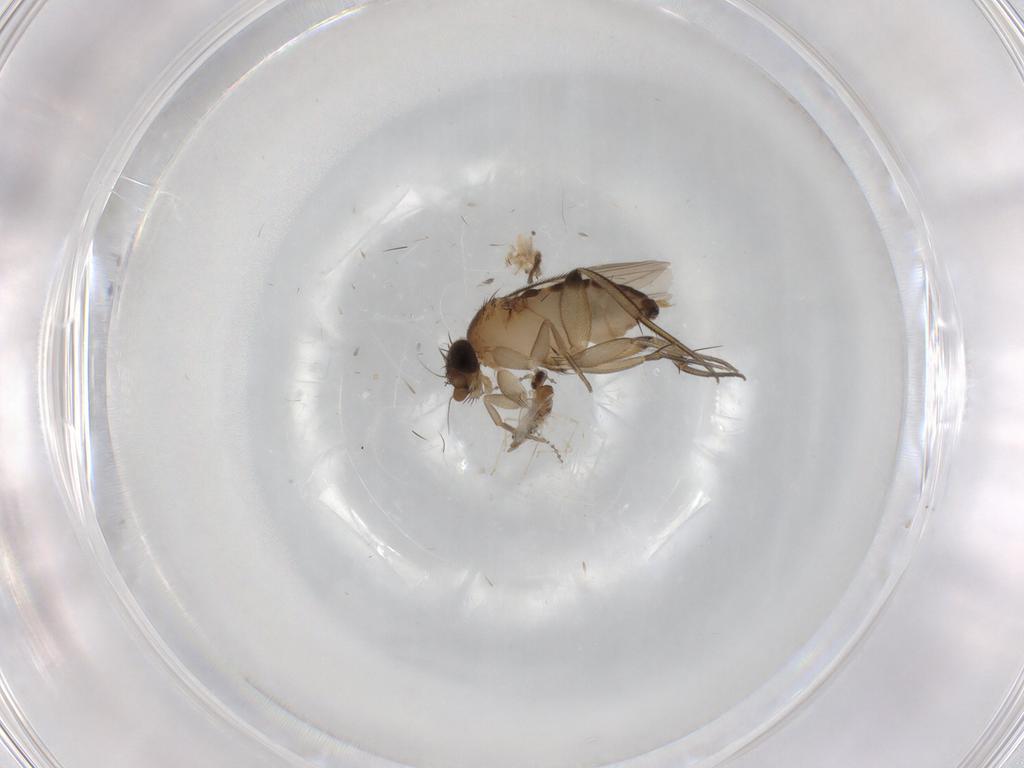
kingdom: Animalia
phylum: Arthropoda
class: Insecta
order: Diptera
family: Phoridae
